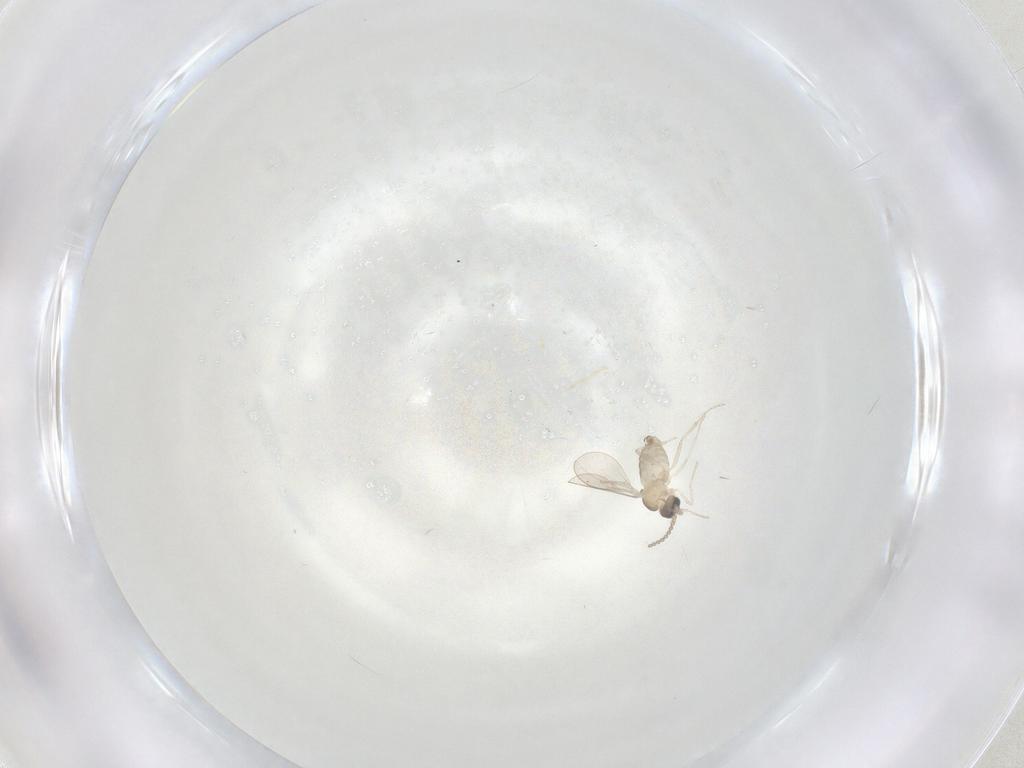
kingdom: Animalia
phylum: Arthropoda
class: Insecta
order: Diptera
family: Cecidomyiidae
